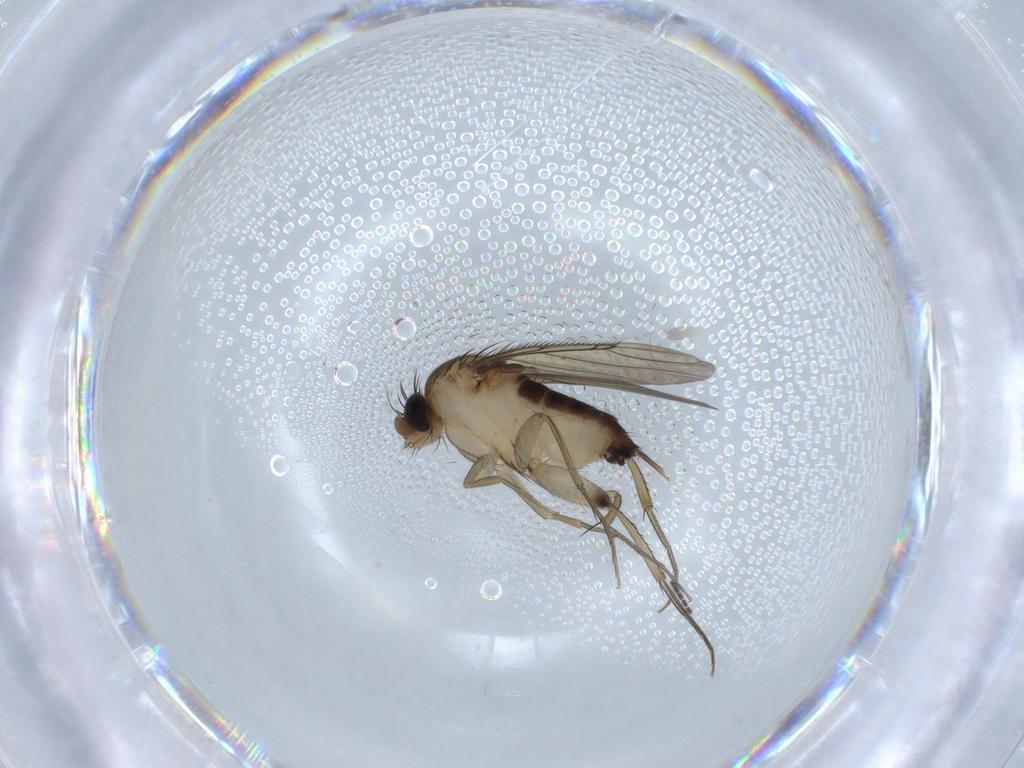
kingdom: Animalia
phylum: Arthropoda
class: Insecta
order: Diptera
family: Phoridae
